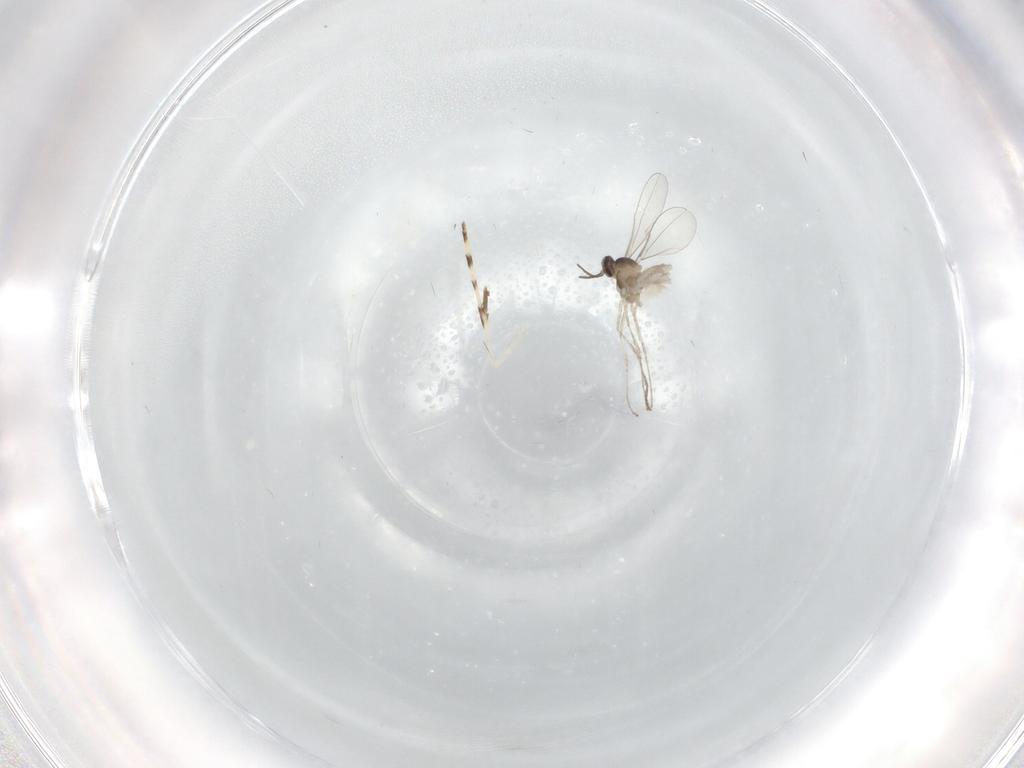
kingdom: Animalia
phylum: Arthropoda
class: Insecta
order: Diptera
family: Cecidomyiidae
